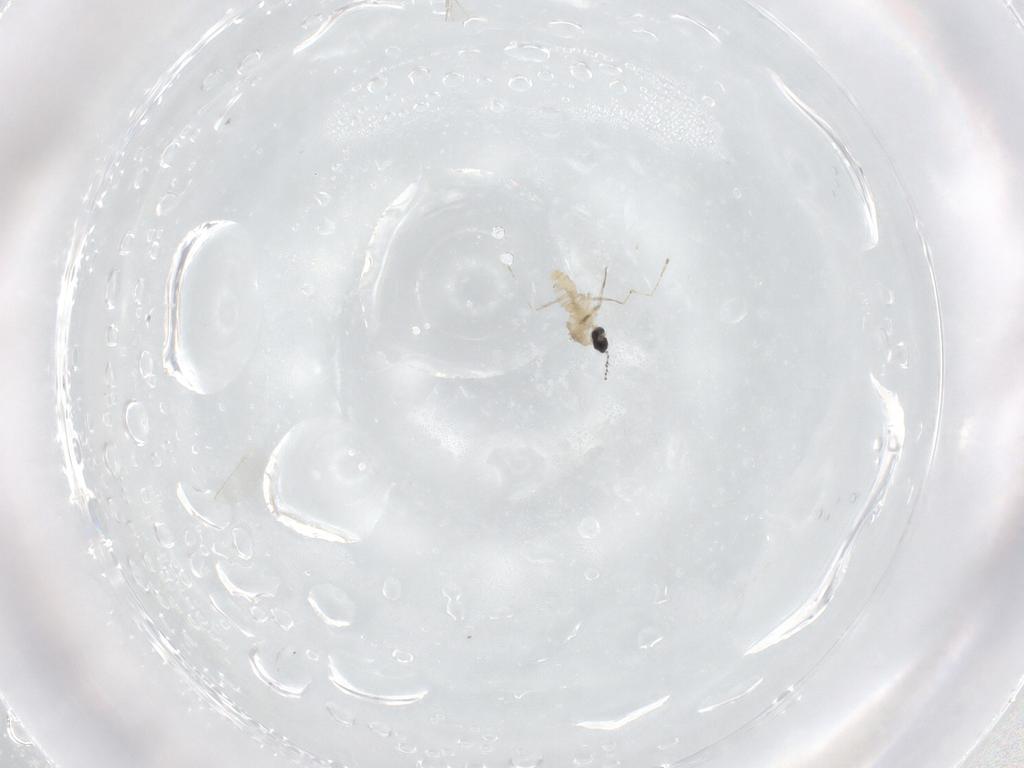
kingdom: Animalia
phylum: Arthropoda
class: Insecta
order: Diptera
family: Cecidomyiidae
